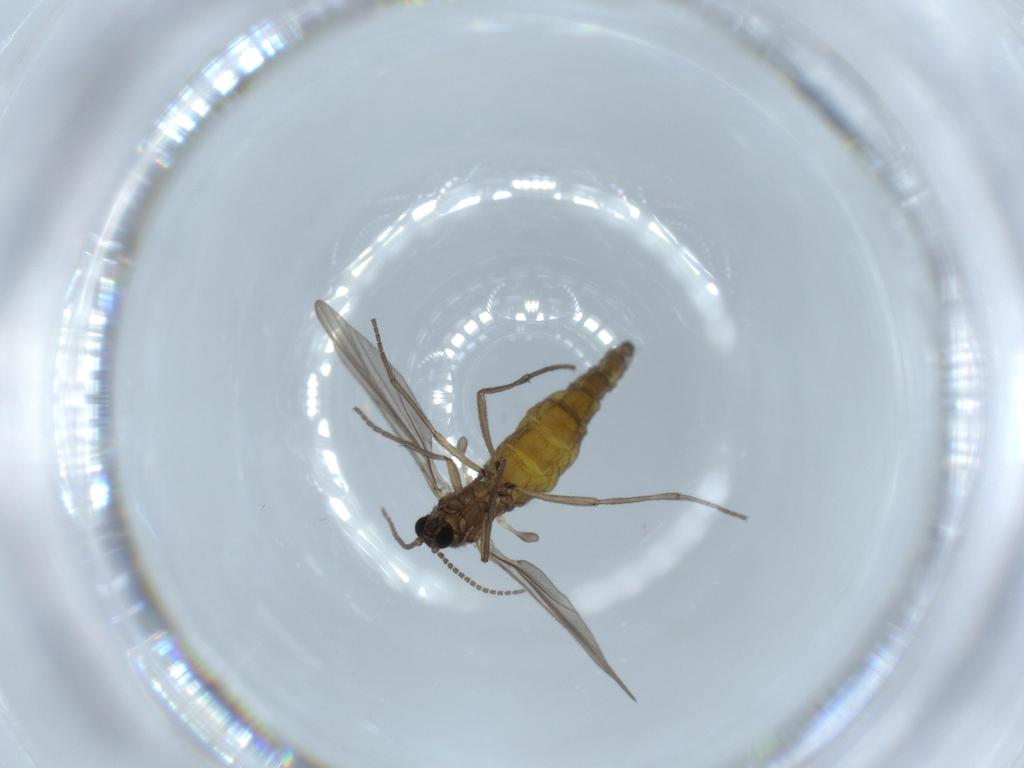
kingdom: Animalia
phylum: Arthropoda
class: Insecta
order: Diptera
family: Sciaridae
